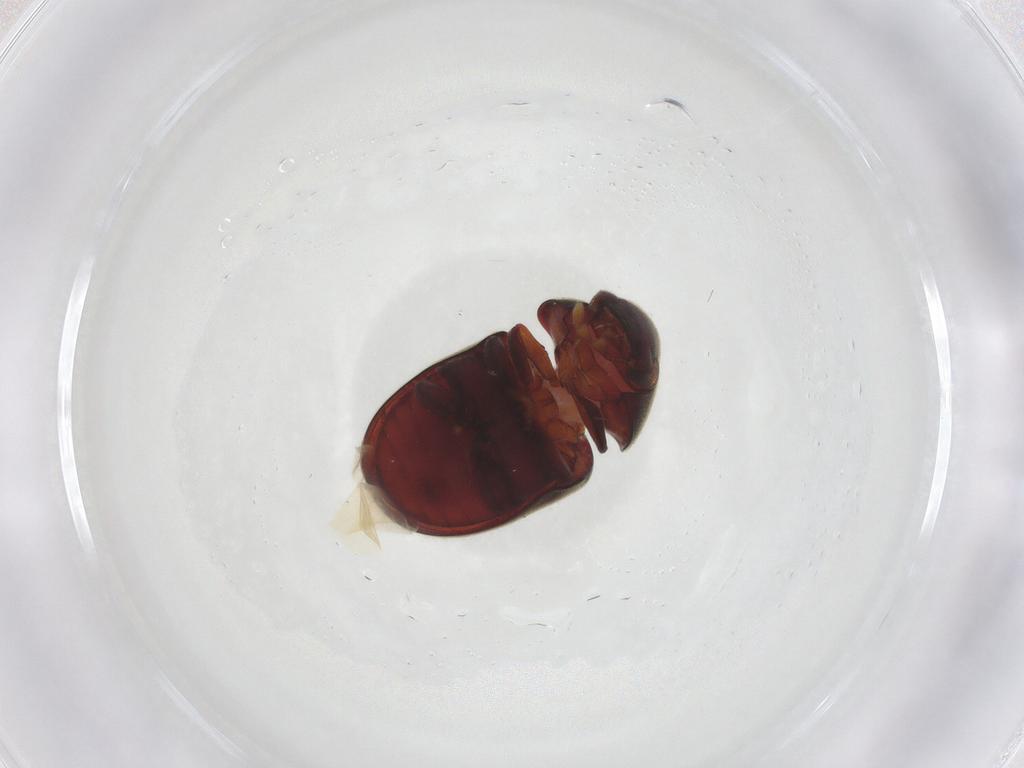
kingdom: Animalia
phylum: Arthropoda
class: Insecta
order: Coleoptera
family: Ptinidae
